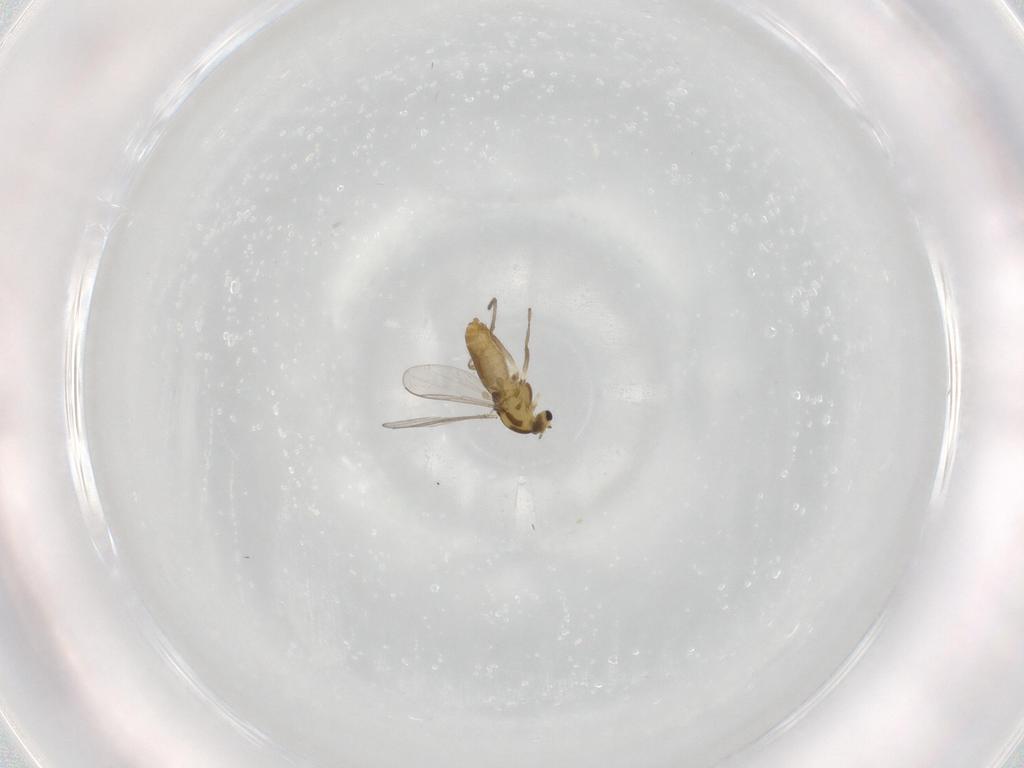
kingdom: Animalia
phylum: Arthropoda
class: Insecta
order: Diptera
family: Chironomidae
